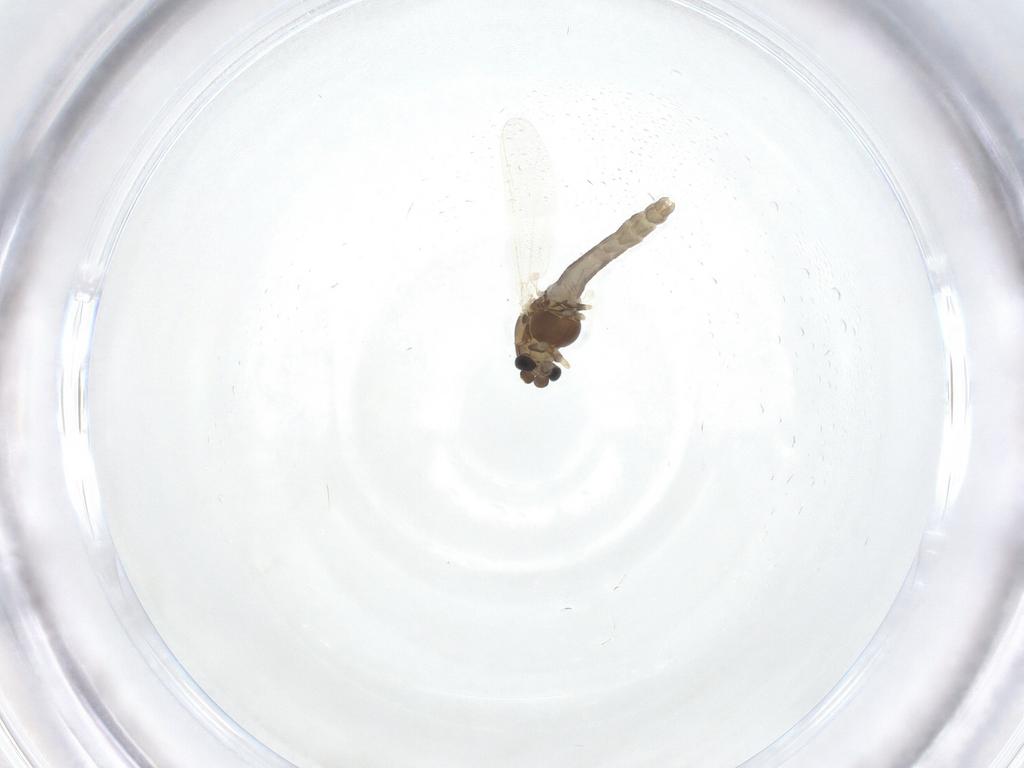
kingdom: Animalia
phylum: Arthropoda
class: Insecta
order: Diptera
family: Chironomidae
